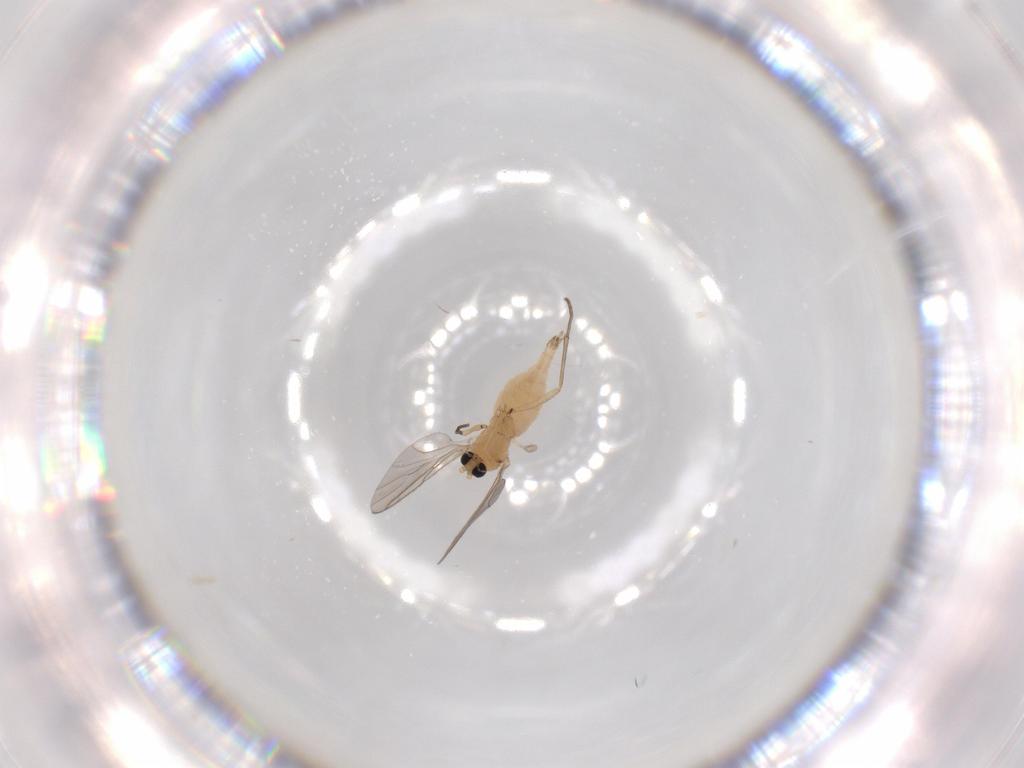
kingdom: Animalia
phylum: Arthropoda
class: Insecta
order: Diptera
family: Sciaridae
